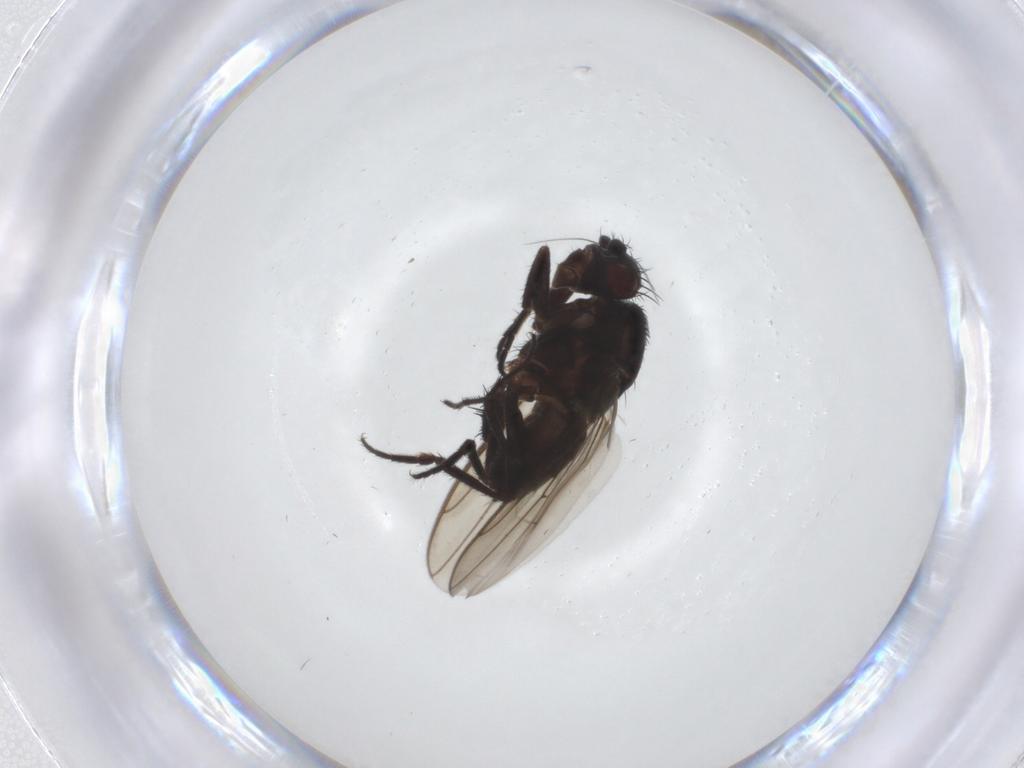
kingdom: Animalia
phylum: Arthropoda
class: Insecta
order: Diptera
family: Sphaeroceridae
